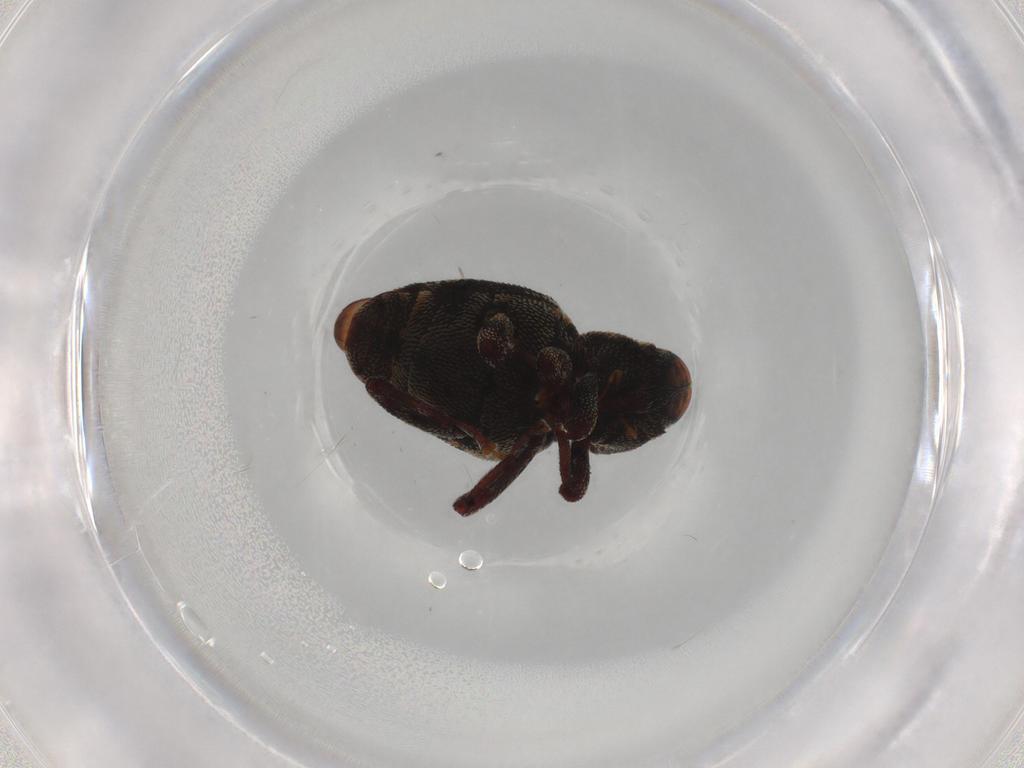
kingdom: Animalia
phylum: Arthropoda
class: Insecta
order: Coleoptera
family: Curculionidae
